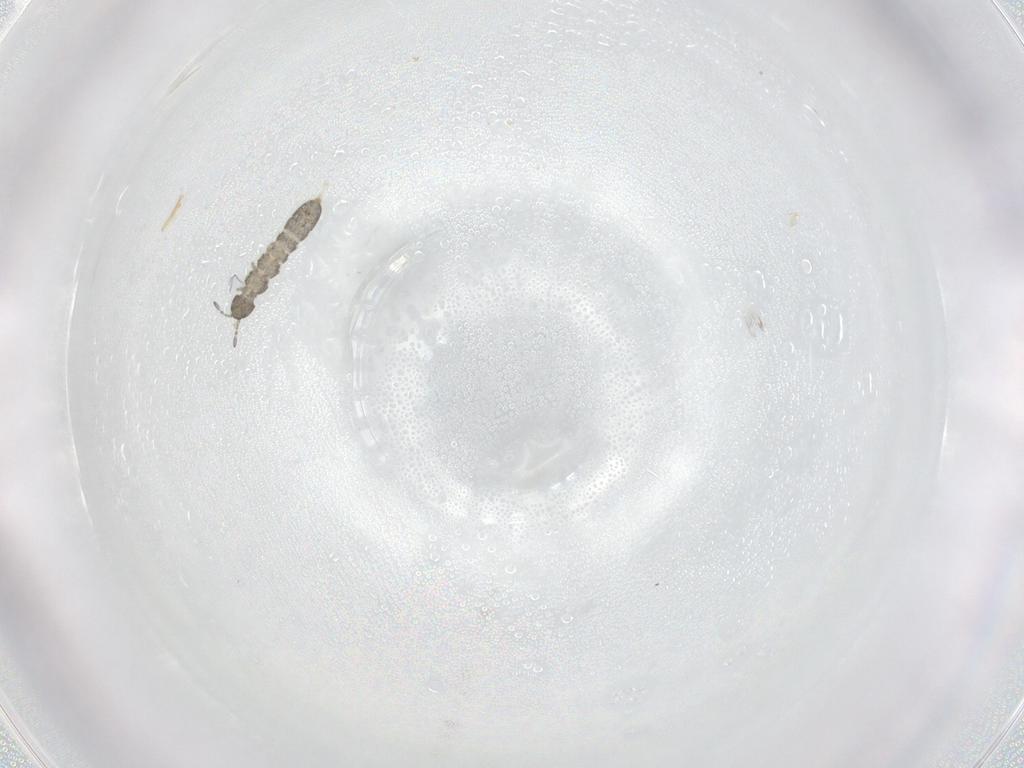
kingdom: Animalia
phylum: Arthropoda
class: Collembola
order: Entomobryomorpha
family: Isotomidae
